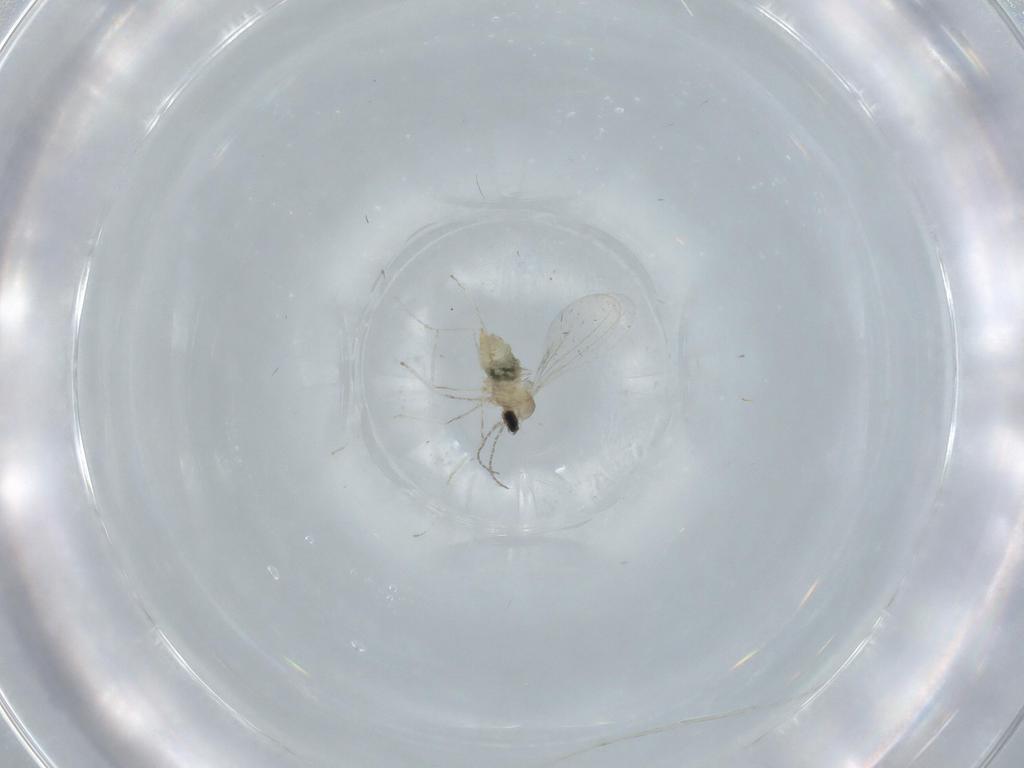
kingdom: Animalia
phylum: Arthropoda
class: Insecta
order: Diptera
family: Cecidomyiidae
